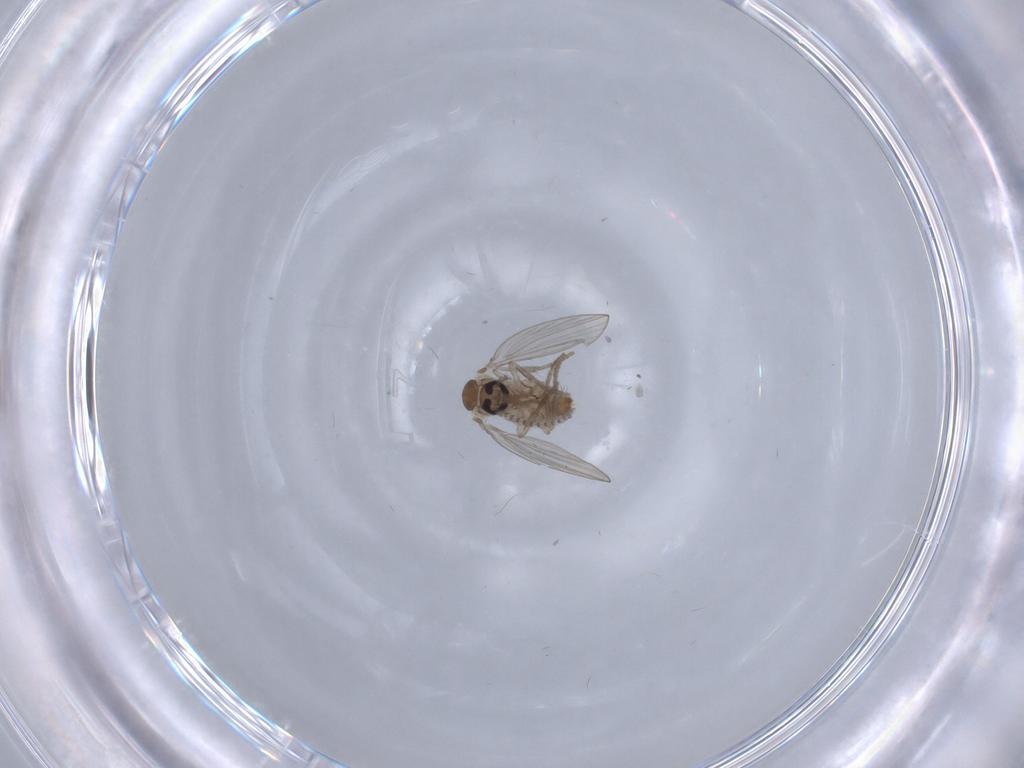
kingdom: Animalia
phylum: Arthropoda
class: Insecta
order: Diptera
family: Psychodidae
